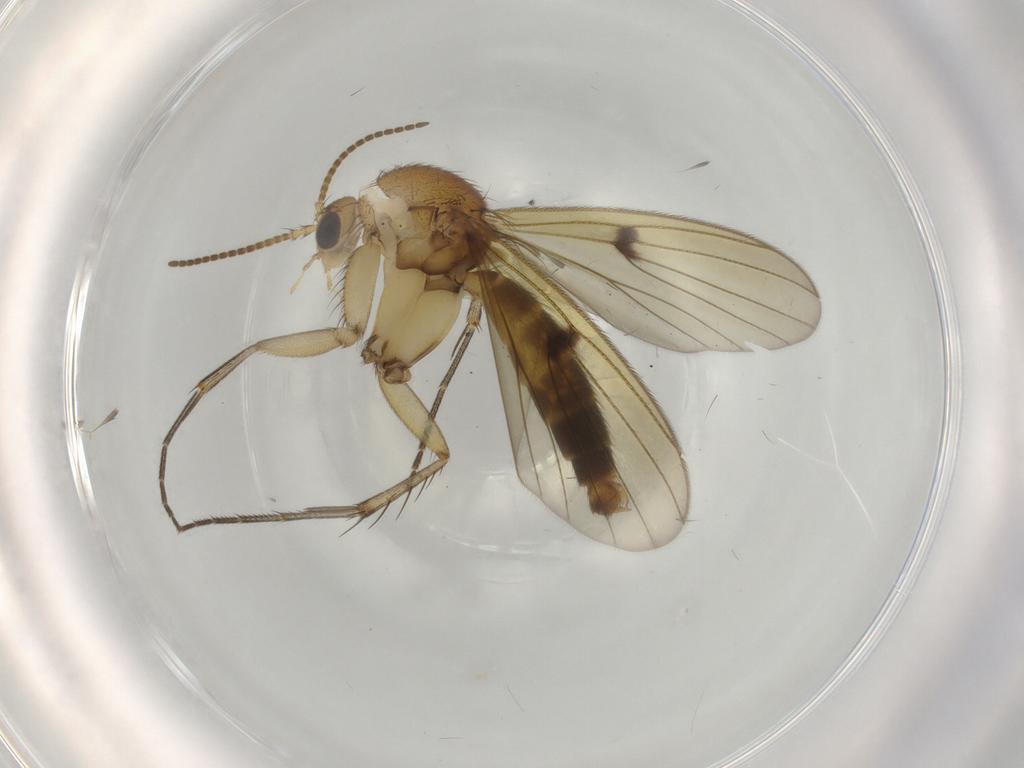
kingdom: Animalia
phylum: Arthropoda
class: Insecta
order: Diptera
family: Mycetophilidae
